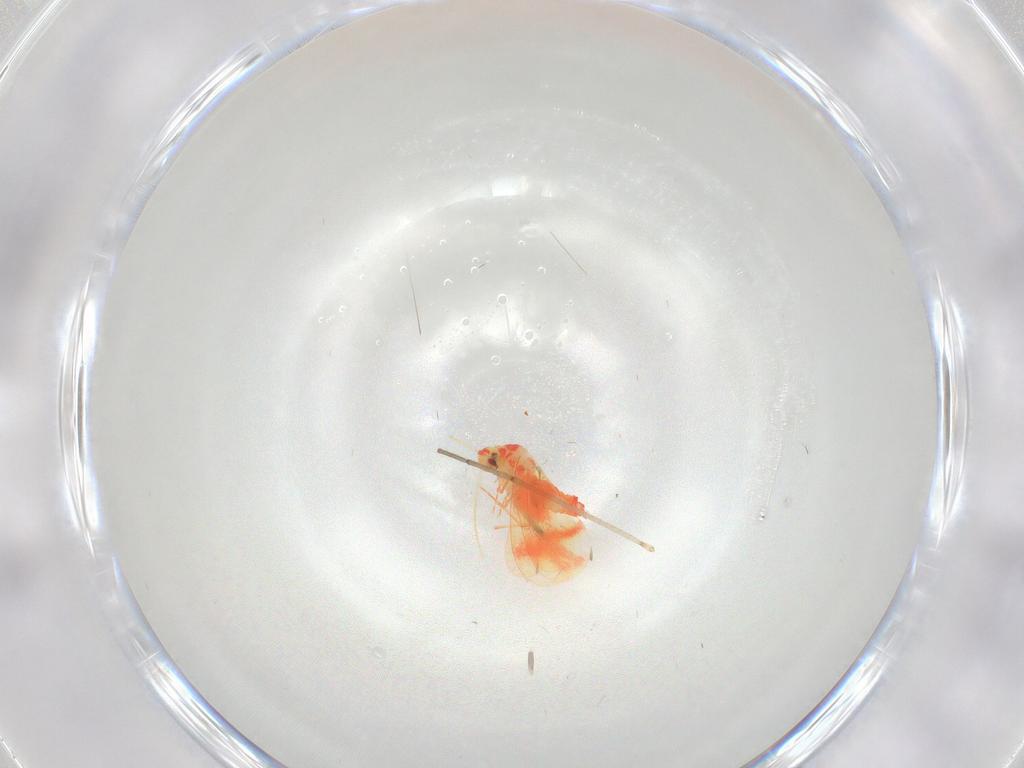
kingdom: Animalia
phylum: Arthropoda
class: Insecta
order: Hemiptera
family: Aleyrodidae
